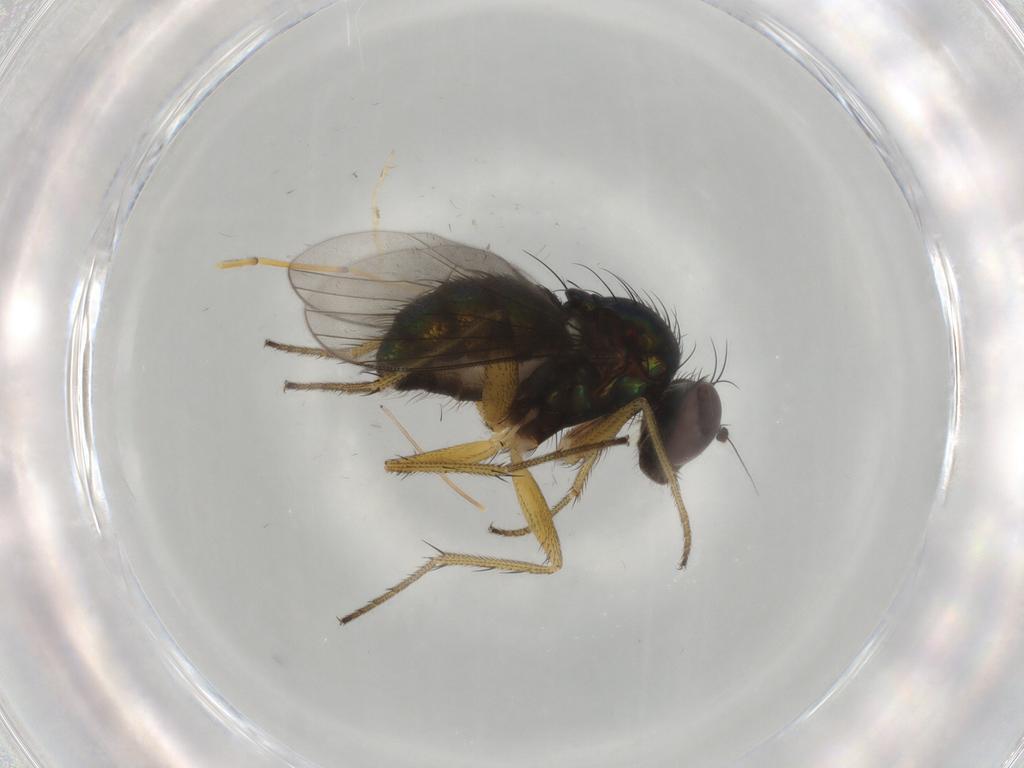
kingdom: Animalia
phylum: Arthropoda
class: Insecta
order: Diptera
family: Dolichopodidae
